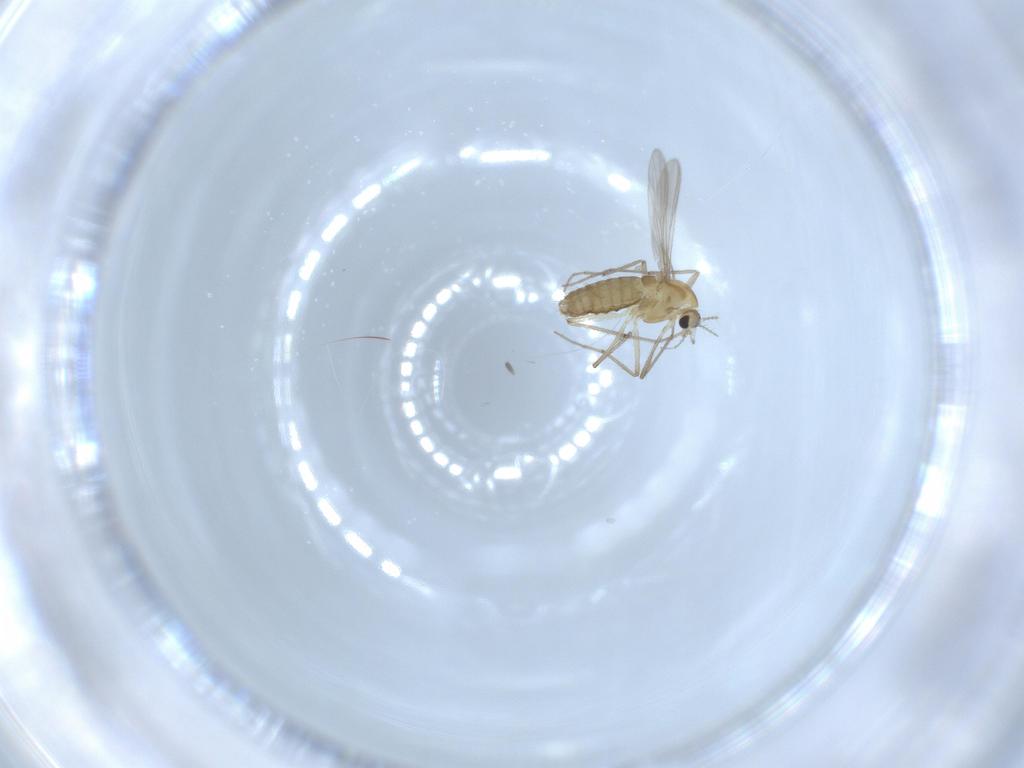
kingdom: Animalia
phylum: Arthropoda
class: Insecta
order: Diptera
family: Chironomidae
